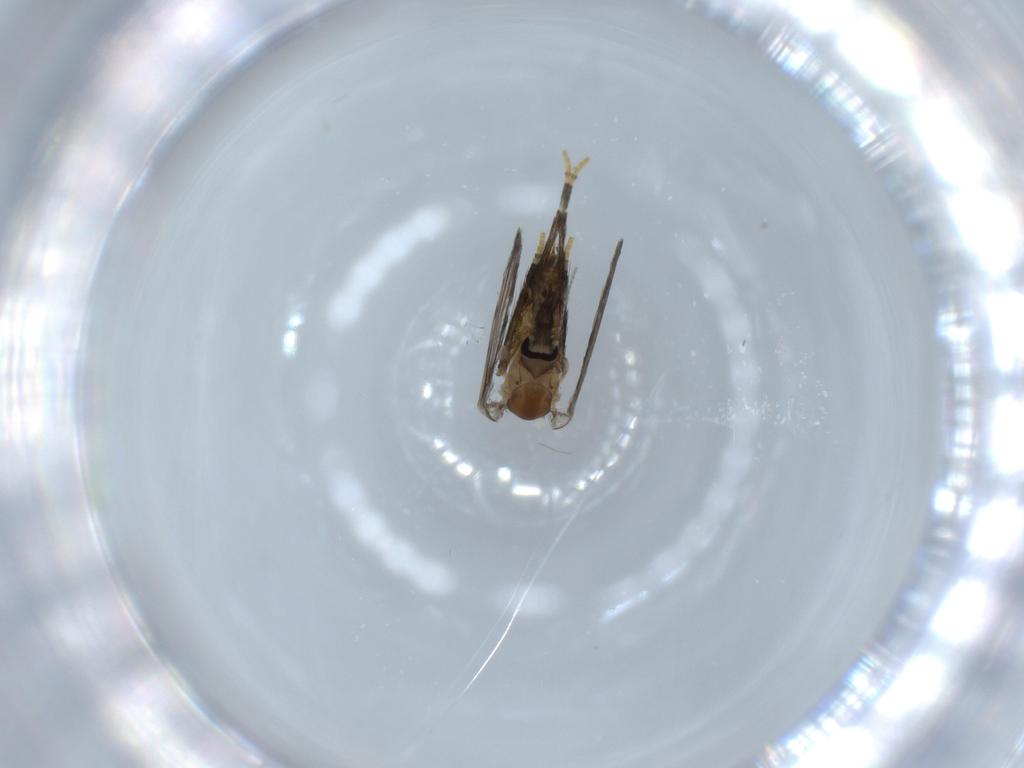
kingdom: Animalia
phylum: Arthropoda
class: Insecta
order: Diptera
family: Psychodidae
